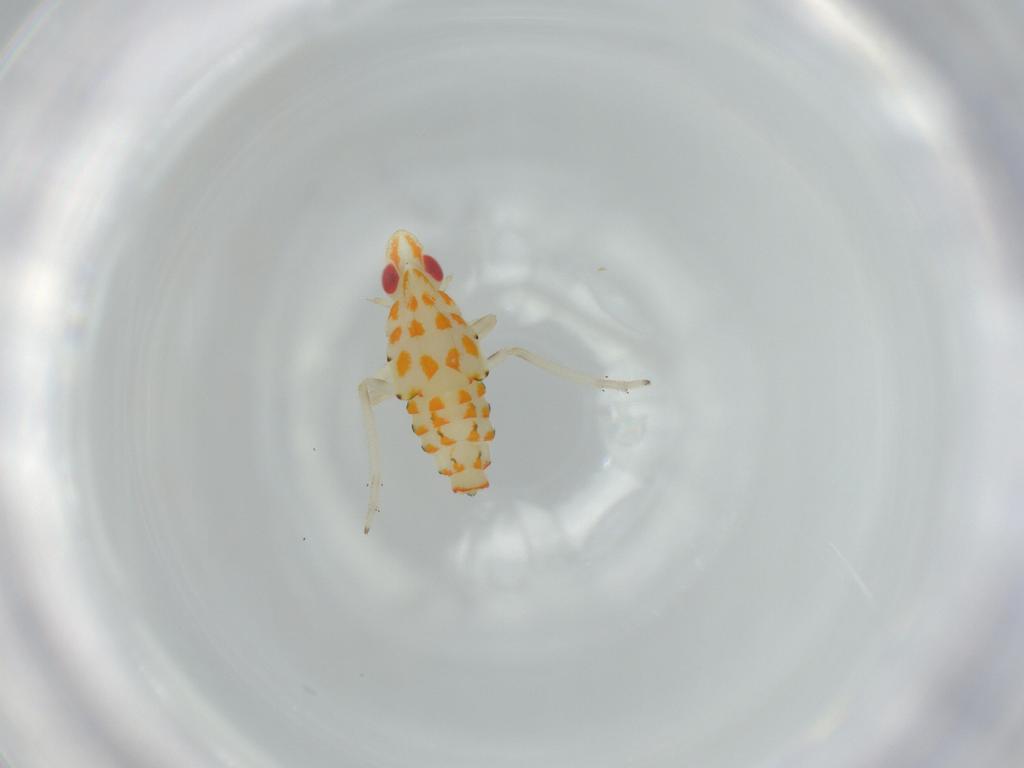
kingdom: Animalia
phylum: Arthropoda
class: Insecta
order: Hemiptera
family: Tropiduchidae
